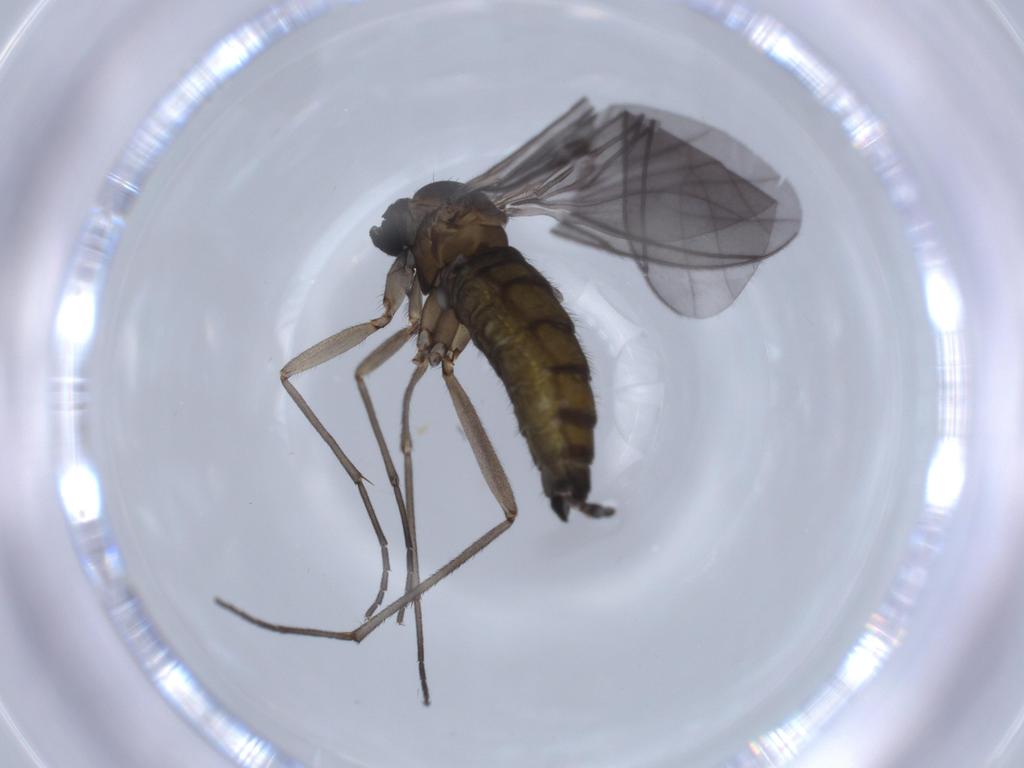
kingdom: Animalia
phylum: Arthropoda
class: Insecta
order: Diptera
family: Sciaridae
